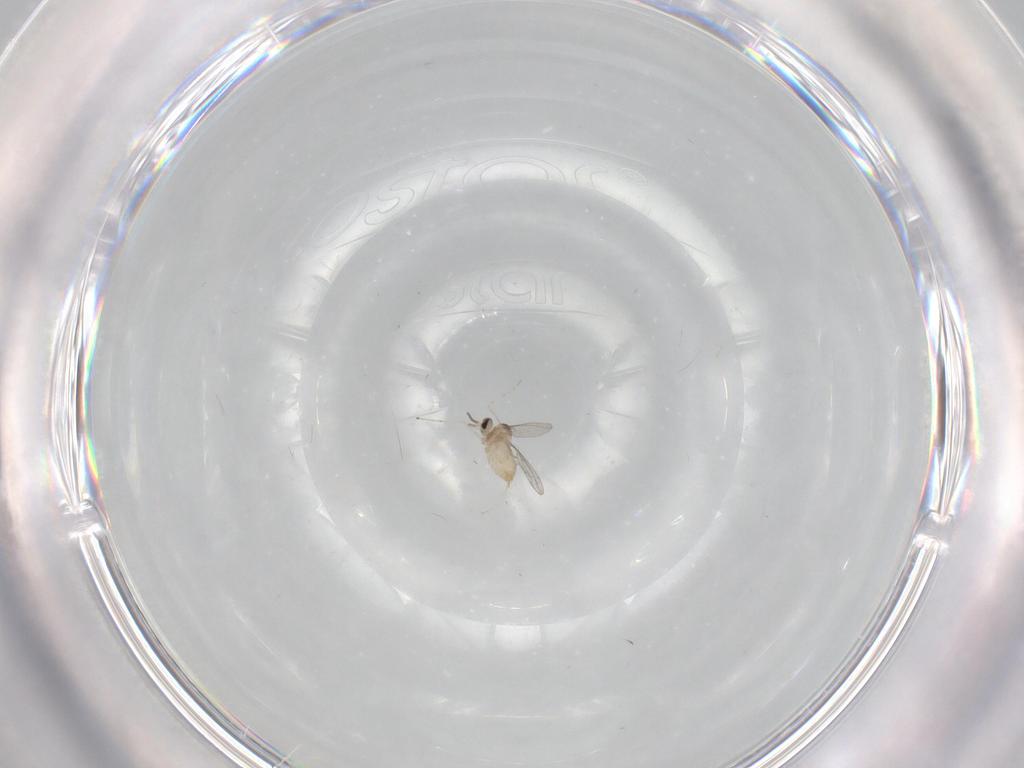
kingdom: Animalia
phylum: Arthropoda
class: Insecta
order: Diptera
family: Cecidomyiidae
